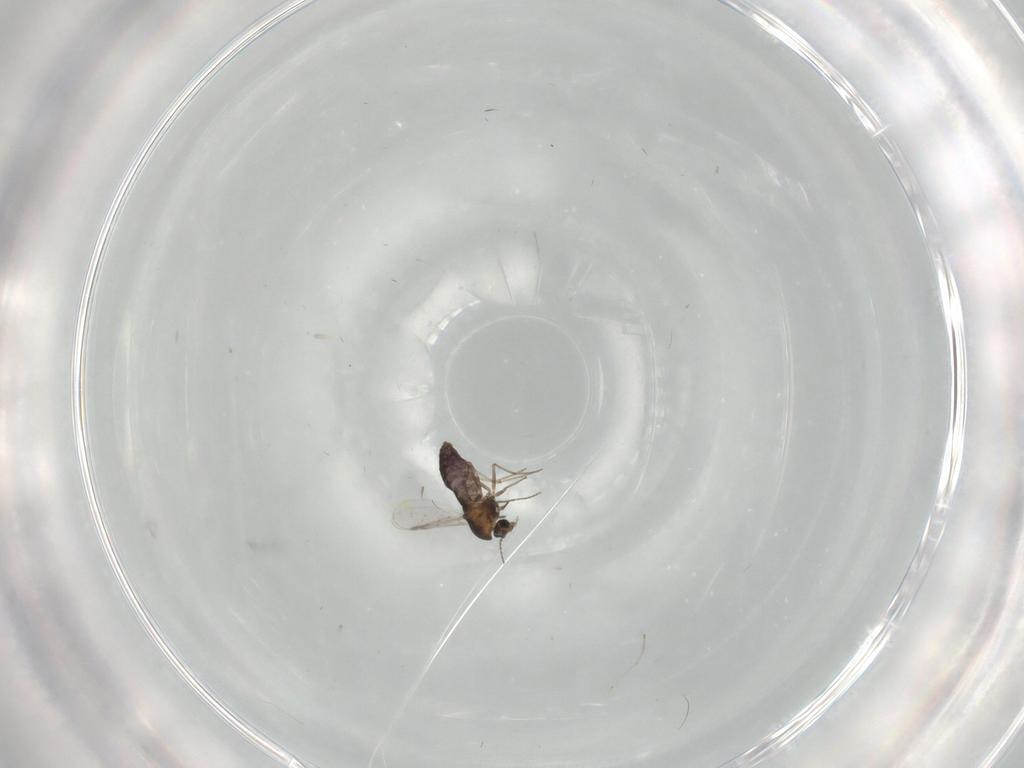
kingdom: Animalia
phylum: Arthropoda
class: Insecta
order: Diptera
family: Chironomidae
